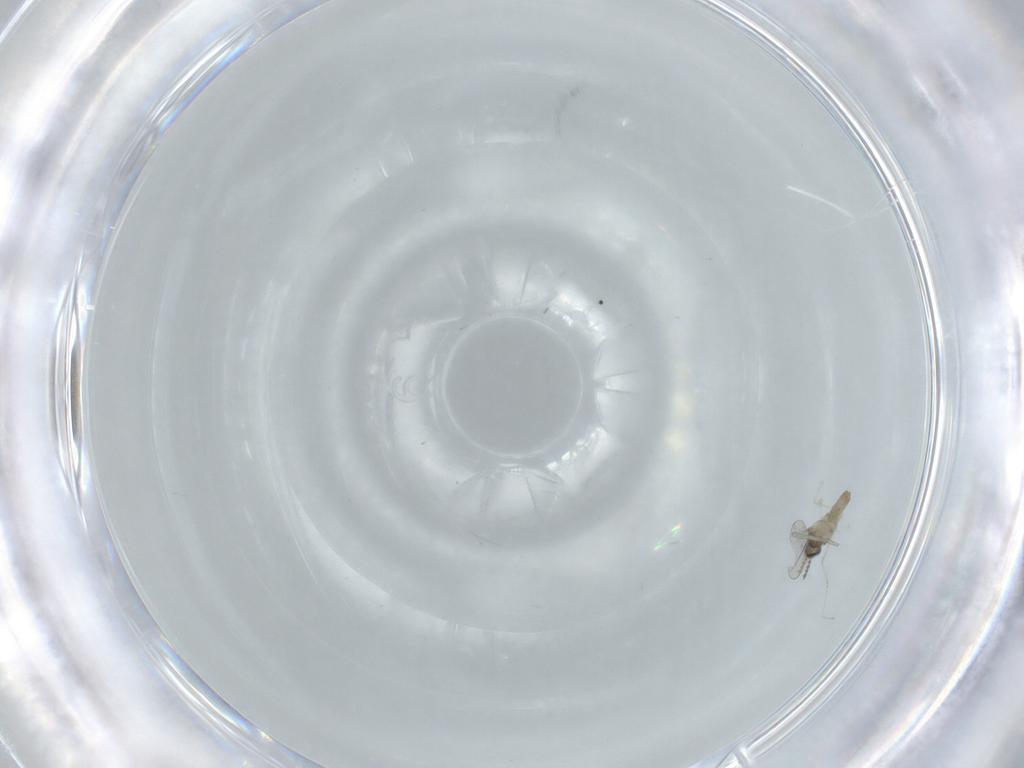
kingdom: Animalia
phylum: Arthropoda
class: Insecta
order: Diptera
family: Cecidomyiidae
